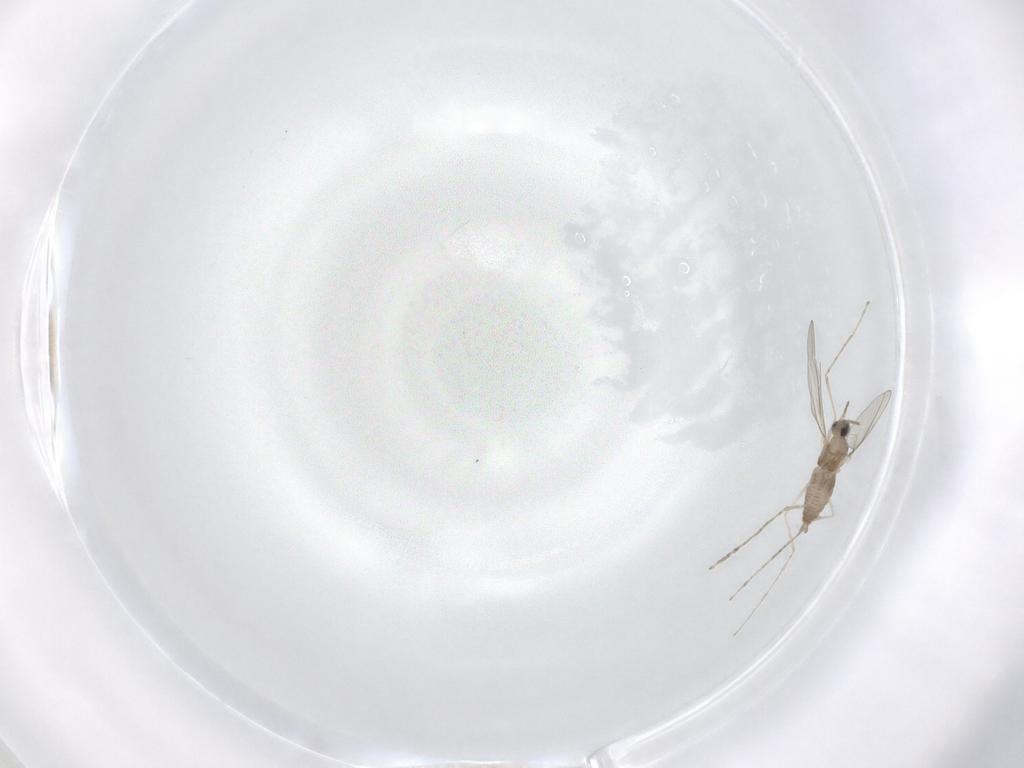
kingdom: Animalia
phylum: Arthropoda
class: Insecta
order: Diptera
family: Cecidomyiidae
